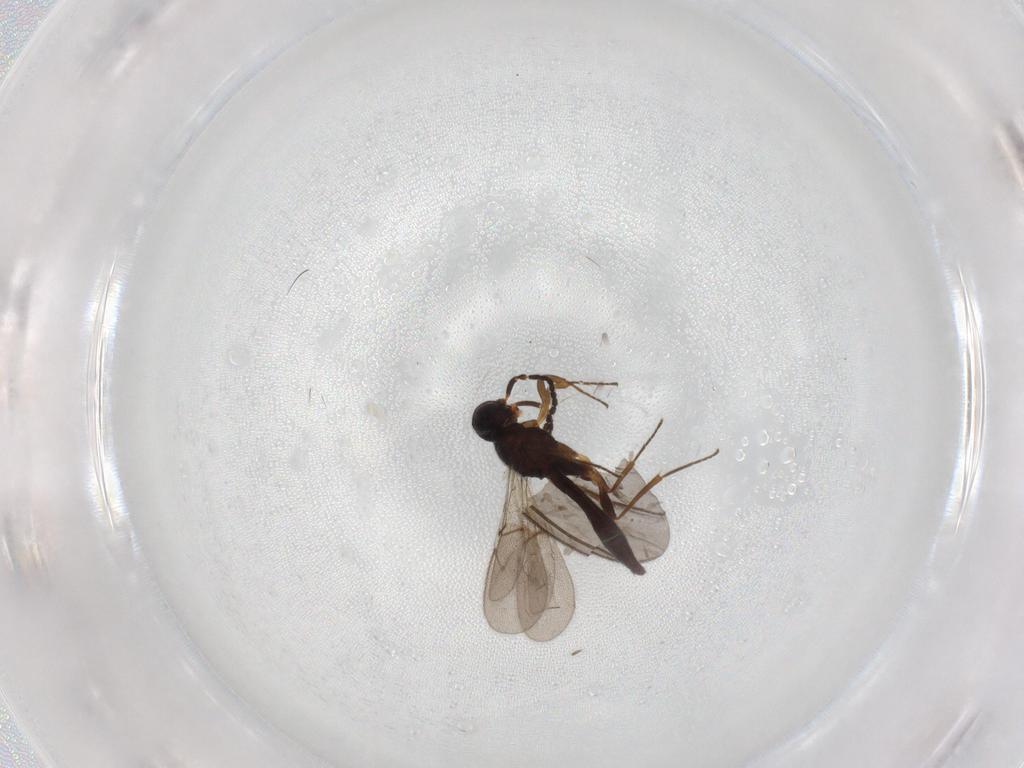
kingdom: Animalia
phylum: Arthropoda
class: Insecta
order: Hymenoptera
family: Scelionidae
